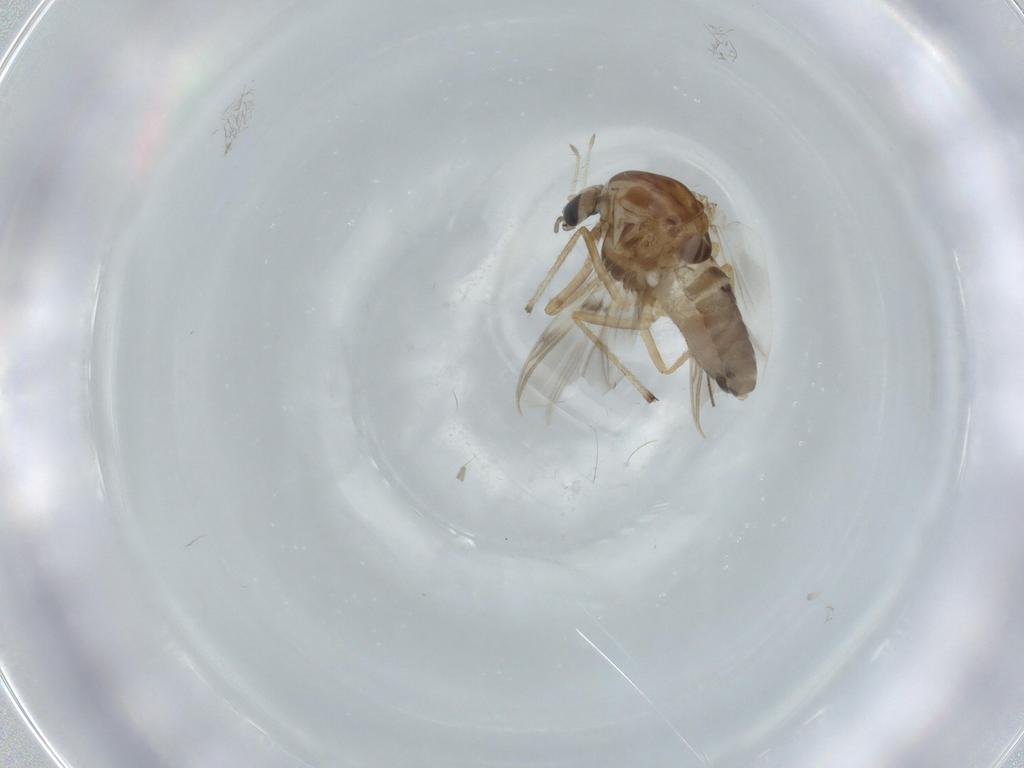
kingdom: Animalia
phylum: Arthropoda
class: Insecta
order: Diptera
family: Chironomidae
